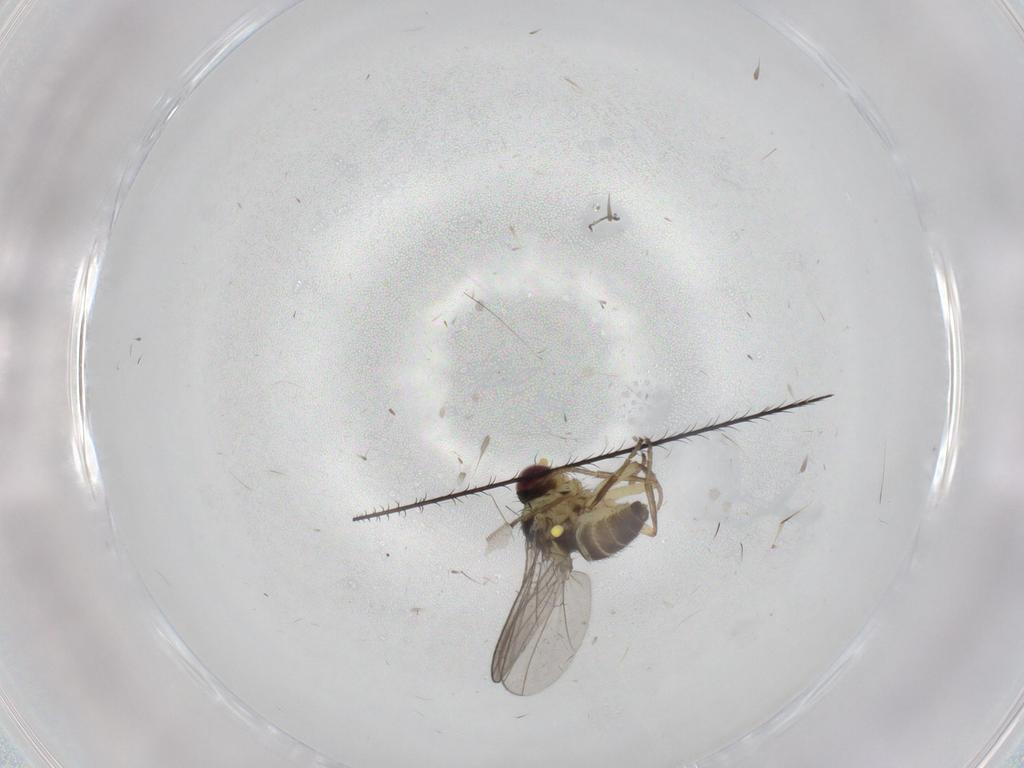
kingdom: Animalia
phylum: Arthropoda
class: Insecta
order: Diptera
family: Agromyzidae
